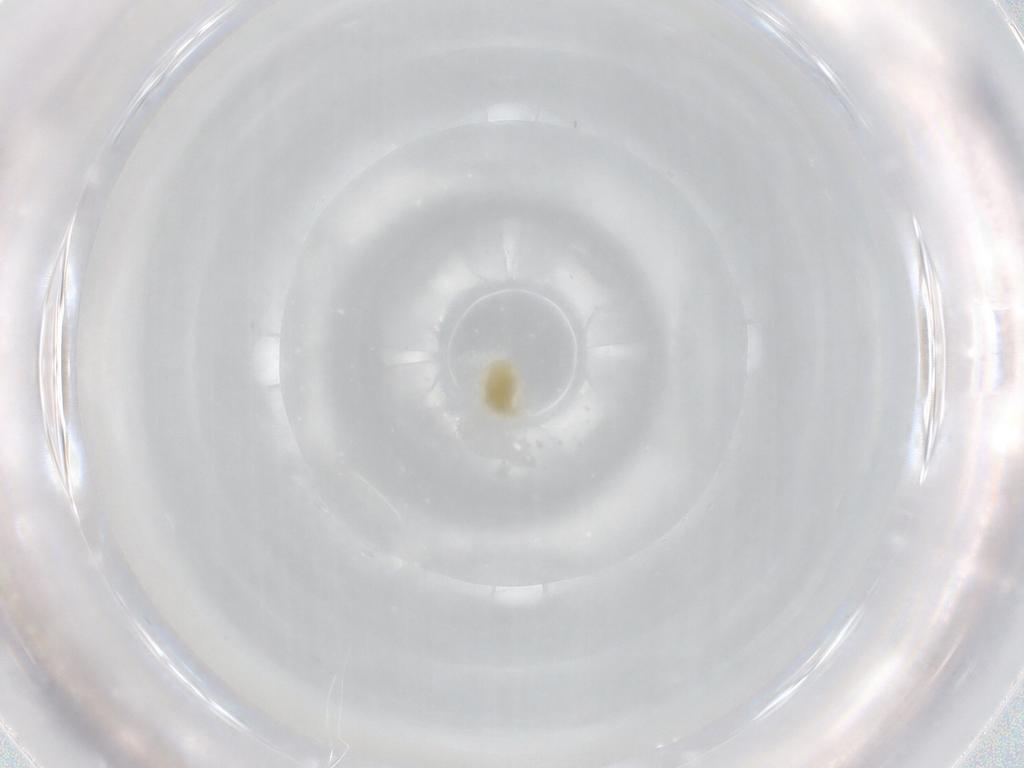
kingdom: Animalia
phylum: Arthropoda
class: Arachnida
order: Trombidiformes
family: Penthalodidae
